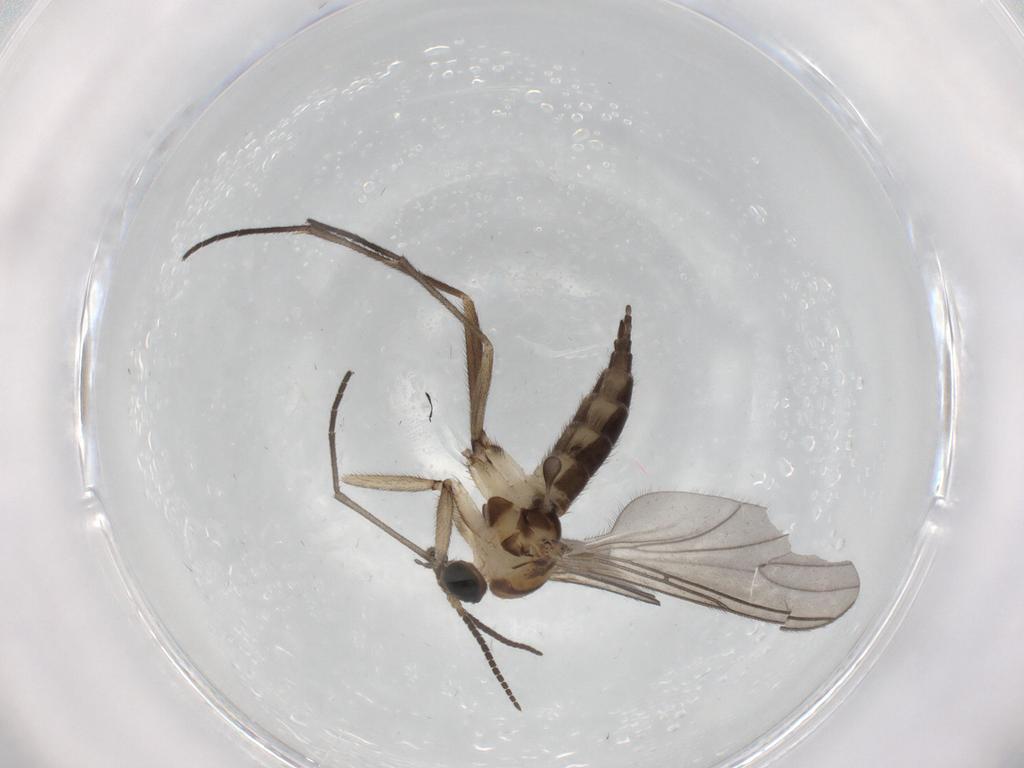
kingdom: Animalia
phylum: Arthropoda
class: Insecta
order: Diptera
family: Sciaridae
